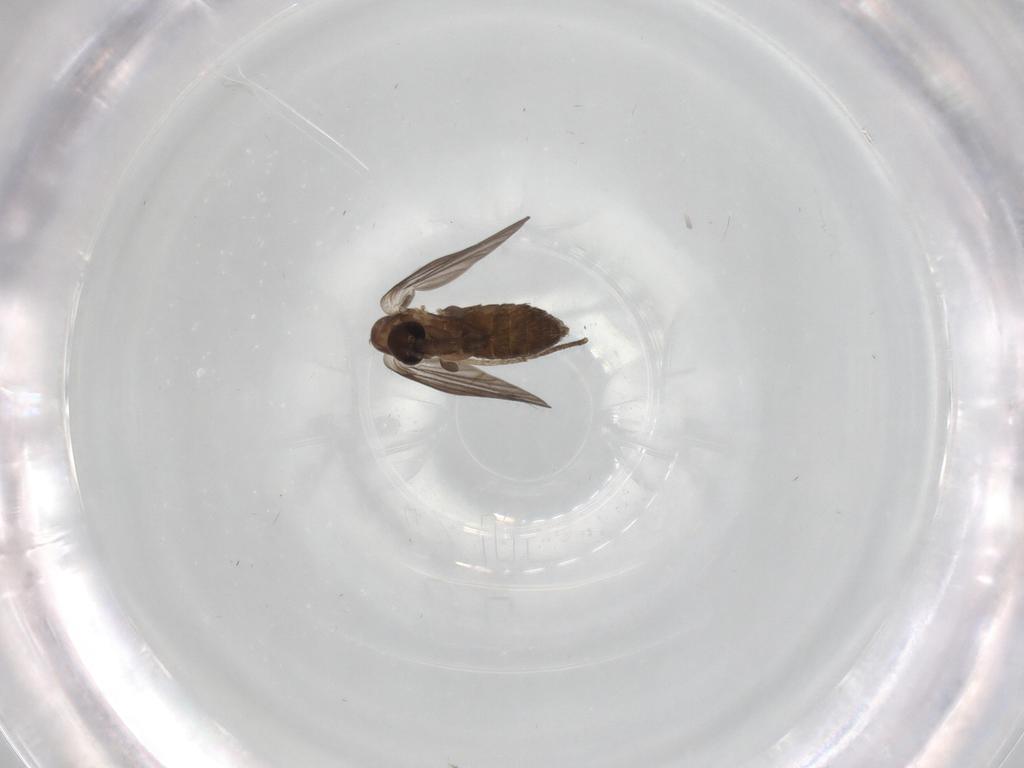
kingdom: Animalia
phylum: Arthropoda
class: Insecta
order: Diptera
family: Psychodidae
